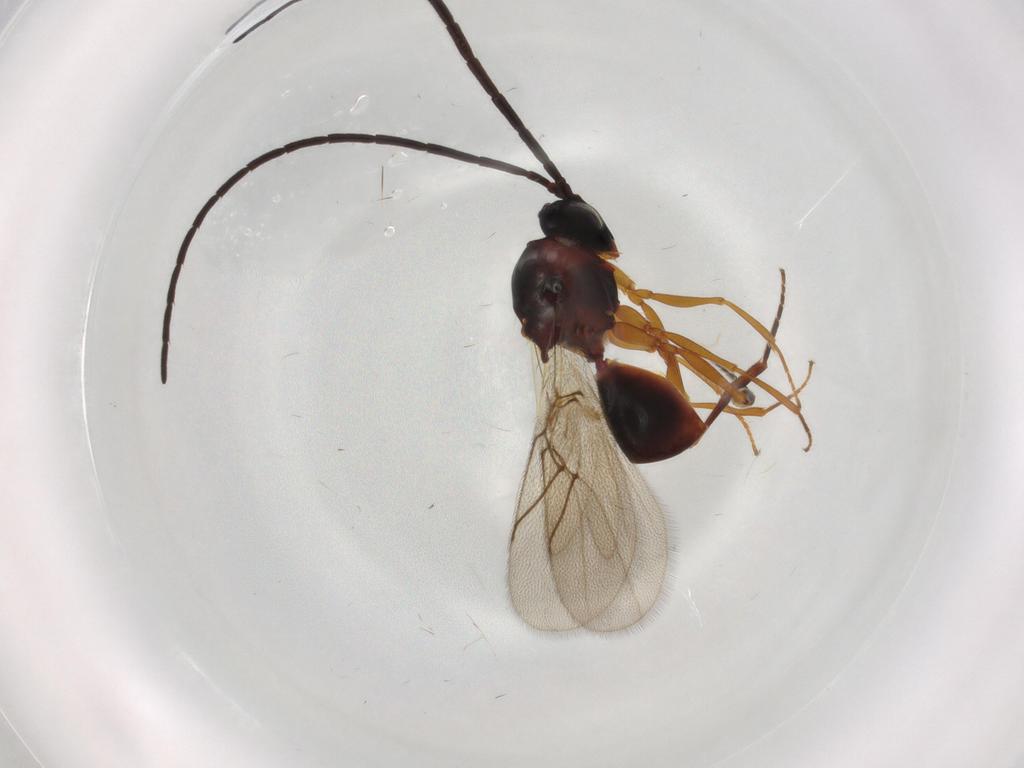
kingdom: Animalia
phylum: Arthropoda
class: Insecta
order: Hymenoptera
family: Figitidae
